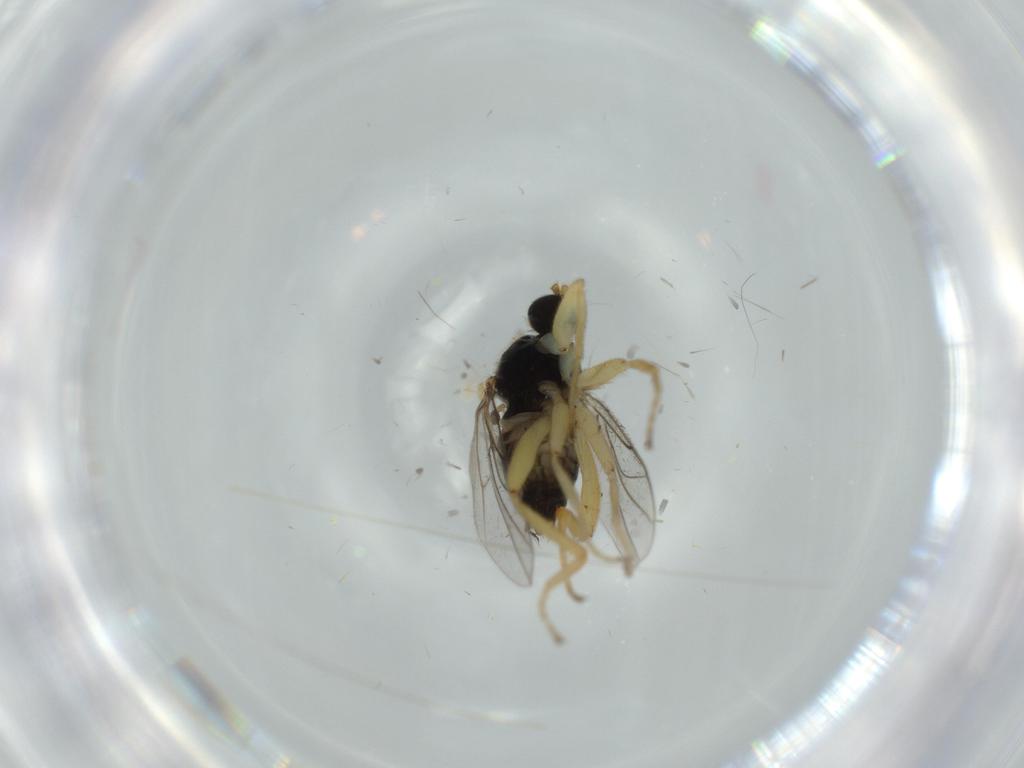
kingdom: Animalia
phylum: Arthropoda
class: Insecta
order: Diptera
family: Hybotidae
